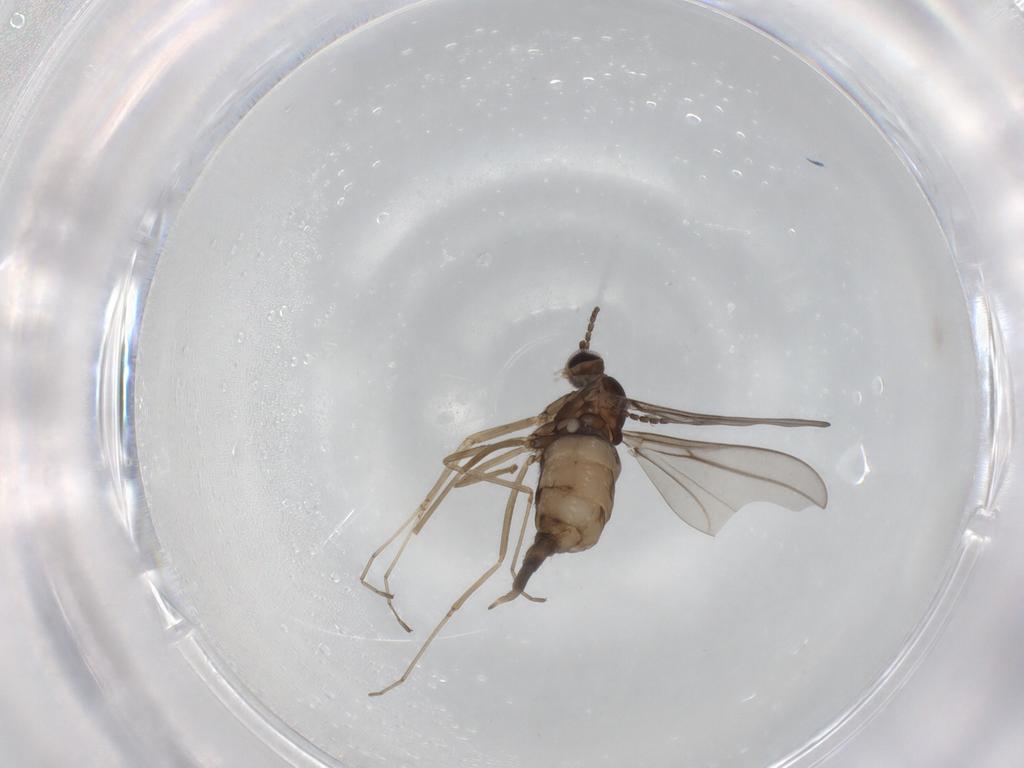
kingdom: Animalia
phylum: Arthropoda
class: Insecta
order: Diptera
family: Cecidomyiidae
